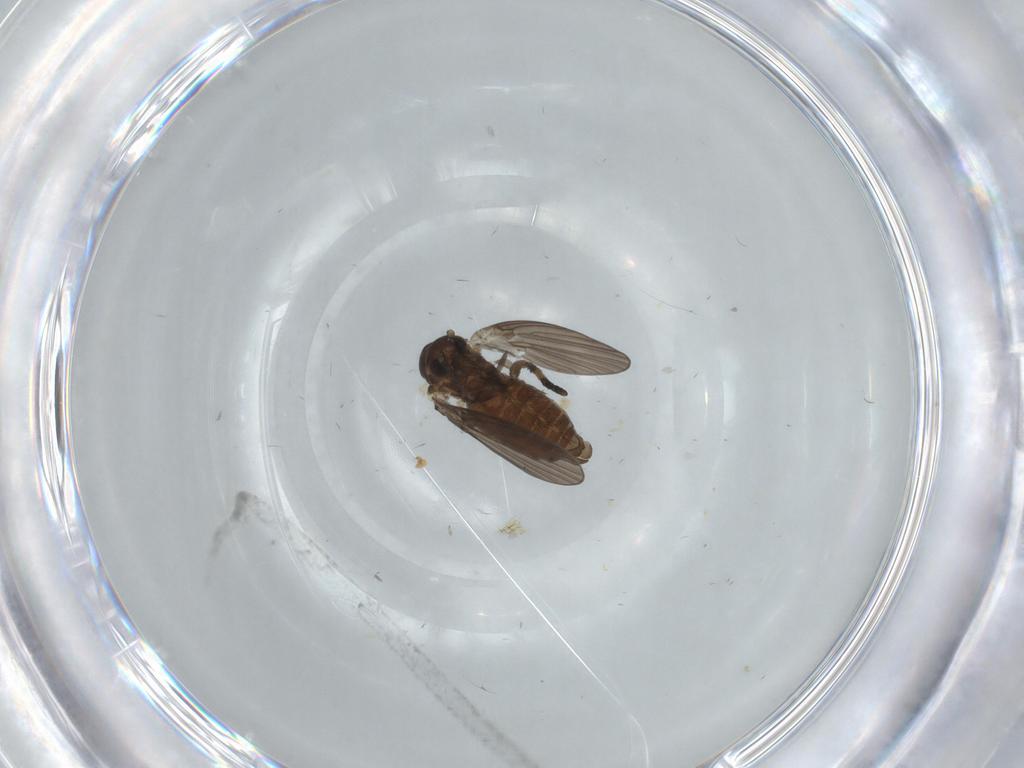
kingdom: Animalia
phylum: Arthropoda
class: Insecta
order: Diptera
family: Psychodidae
